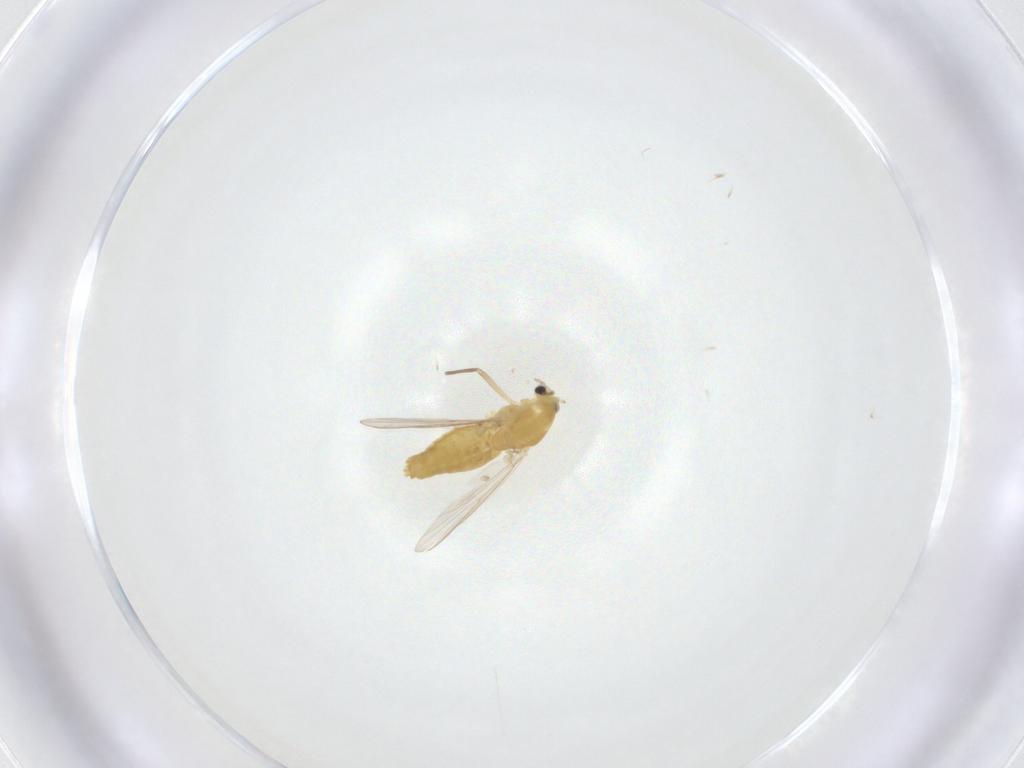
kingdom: Animalia
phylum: Arthropoda
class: Insecta
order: Diptera
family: Chironomidae
